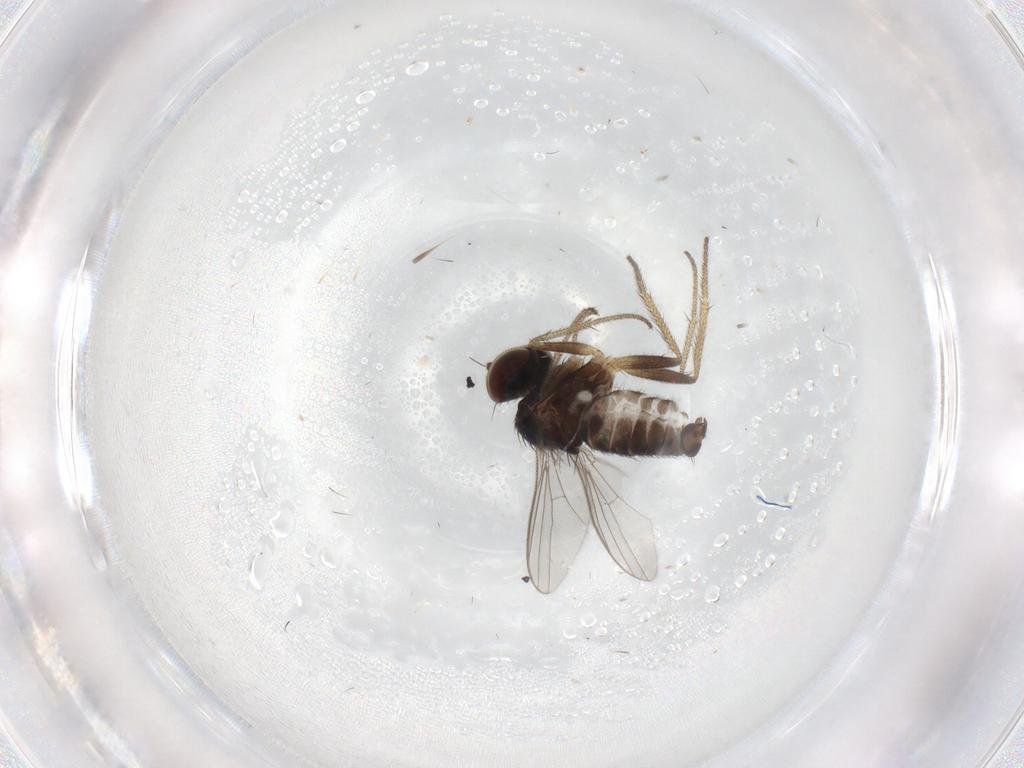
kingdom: Animalia
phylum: Arthropoda
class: Insecta
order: Diptera
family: Dolichopodidae
